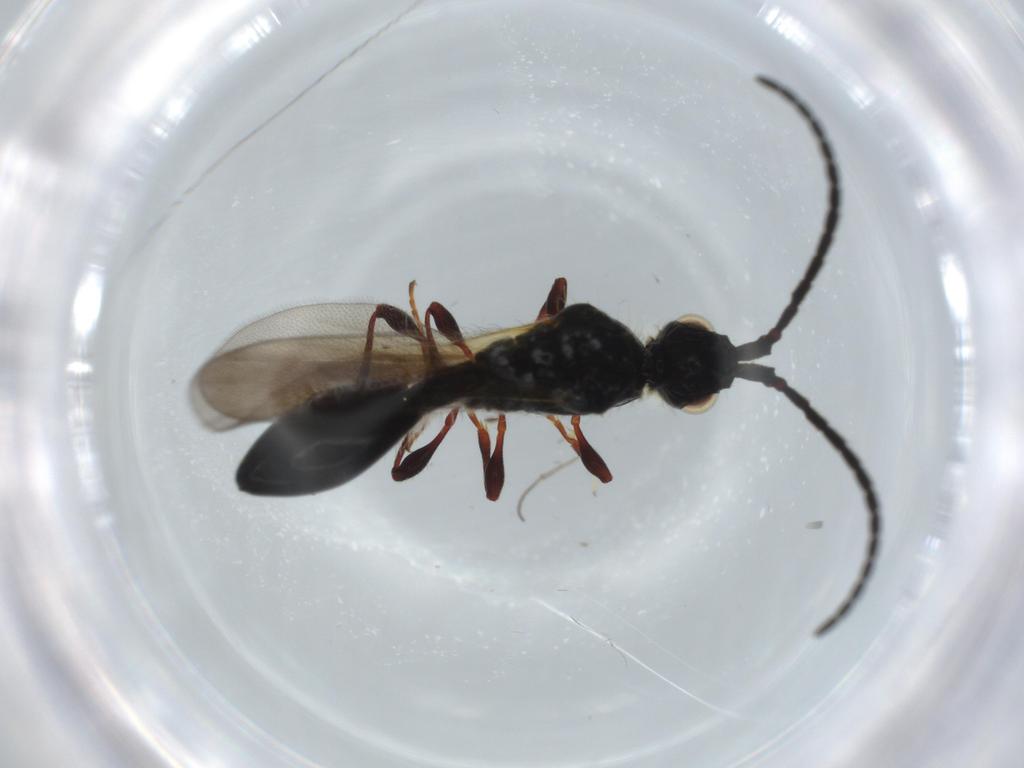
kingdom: Animalia
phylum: Arthropoda
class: Insecta
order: Hymenoptera
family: Diapriidae
